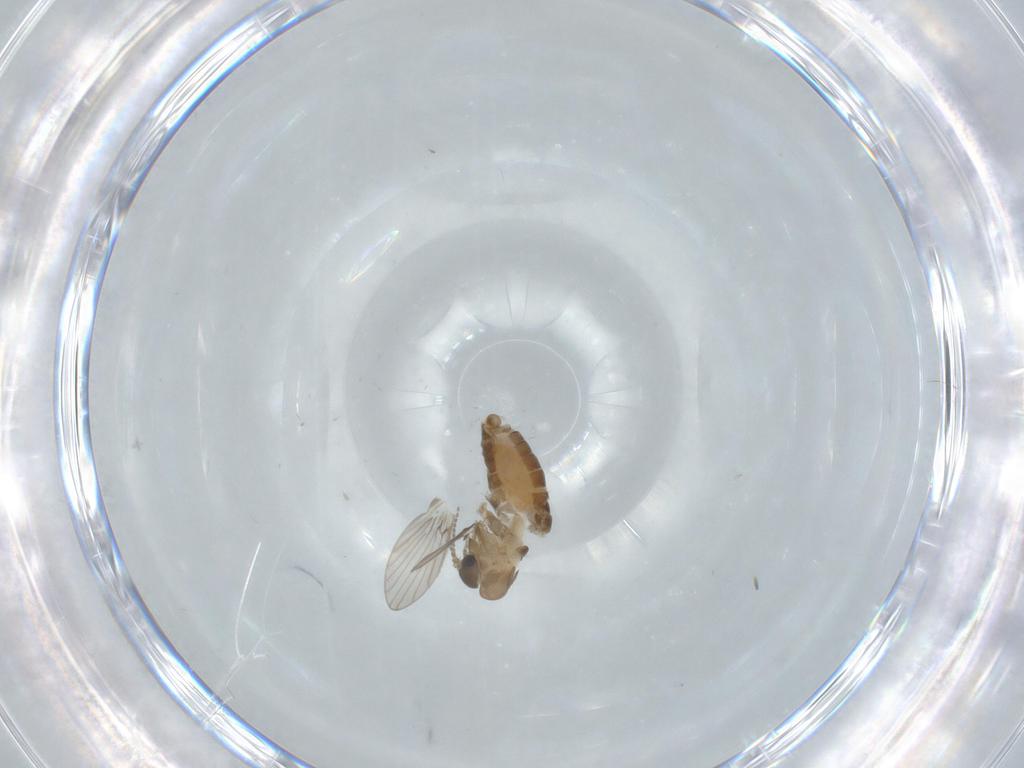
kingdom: Animalia
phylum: Arthropoda
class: Insecta
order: Diptera
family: Psychodidae
